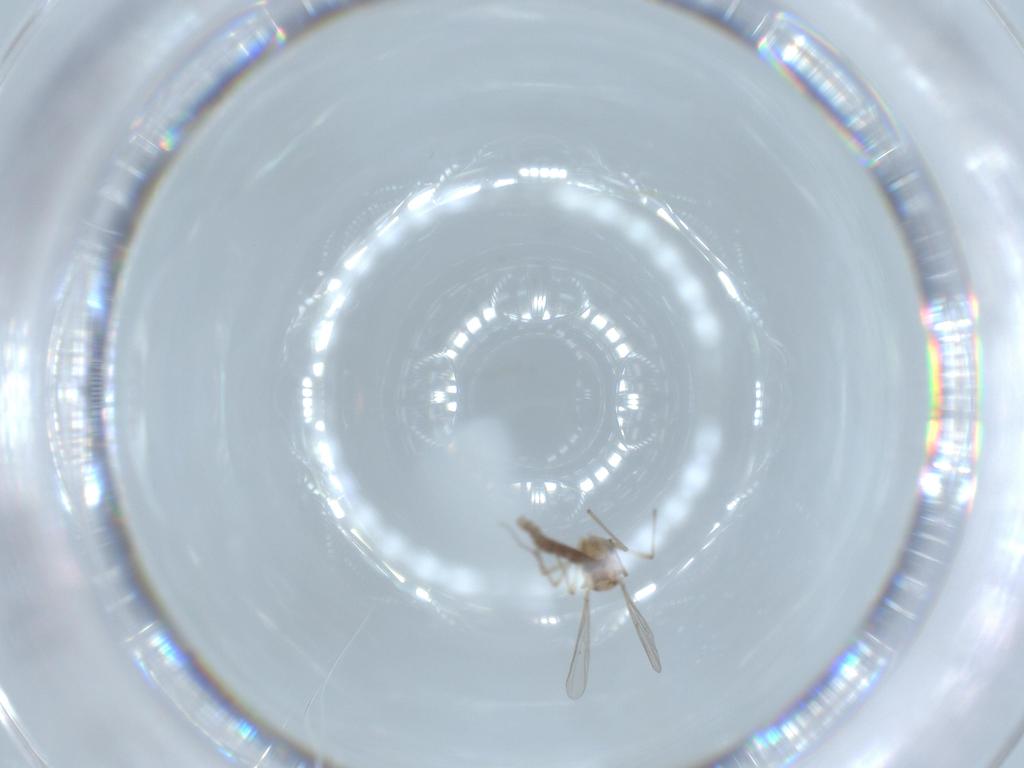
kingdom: Animalia
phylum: Arthropoda
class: Insecta
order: Diptera
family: Chironomidae
